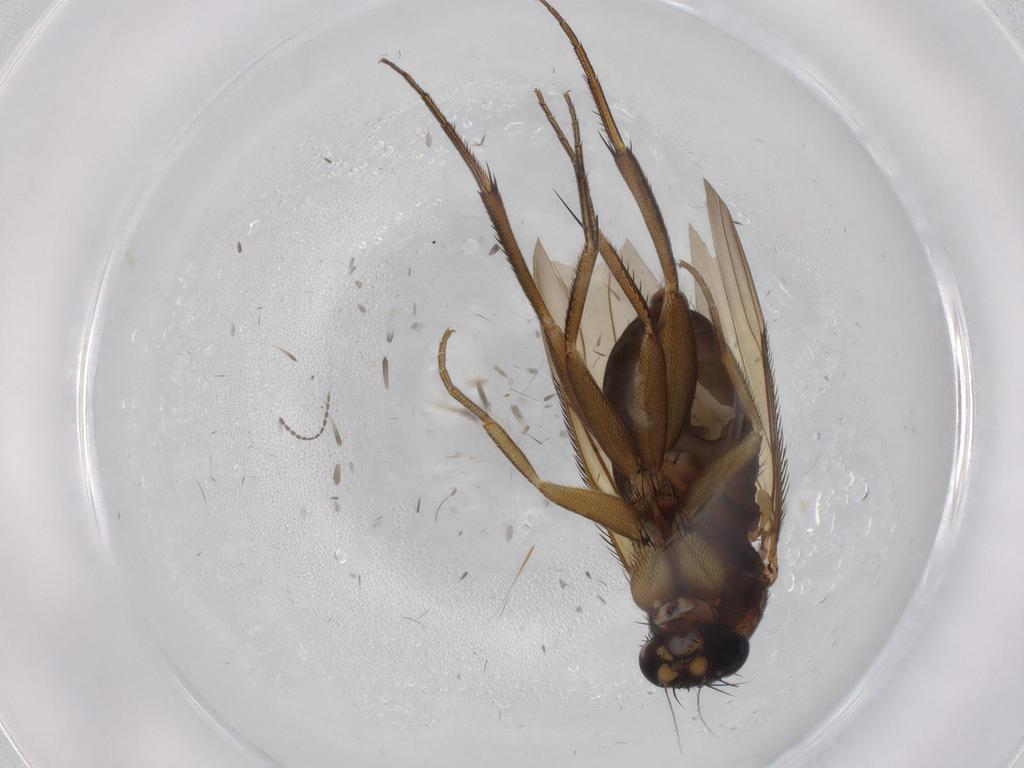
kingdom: Animalia
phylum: Arthropoda
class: Insecta
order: Diptera
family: Phoridae
